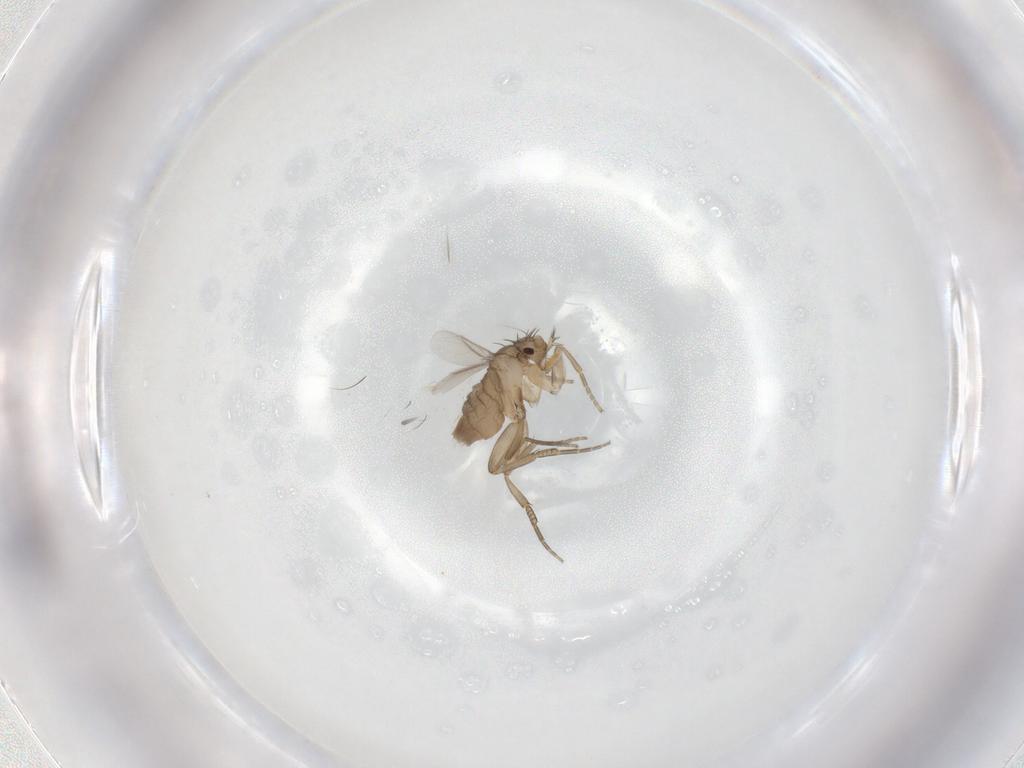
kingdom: Animalia
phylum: Arthropoda
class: Insecta
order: Diptera
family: Phoridae
